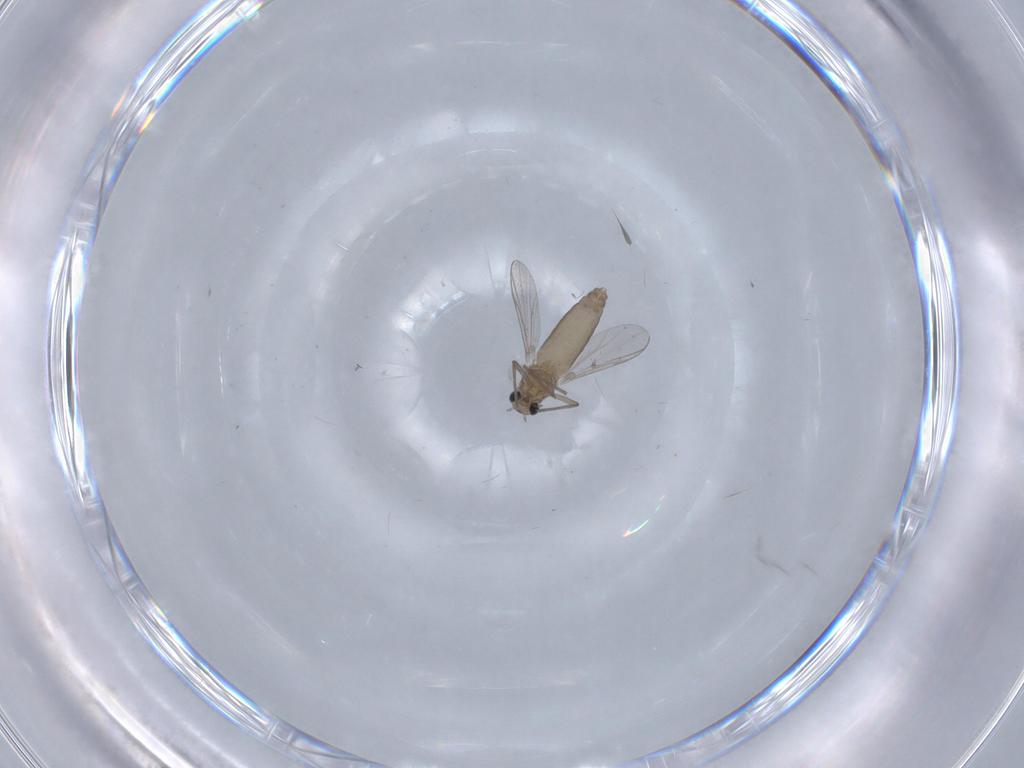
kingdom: Animalia
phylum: Arthropoda
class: Insecta
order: Diptera
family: Chironomidae
